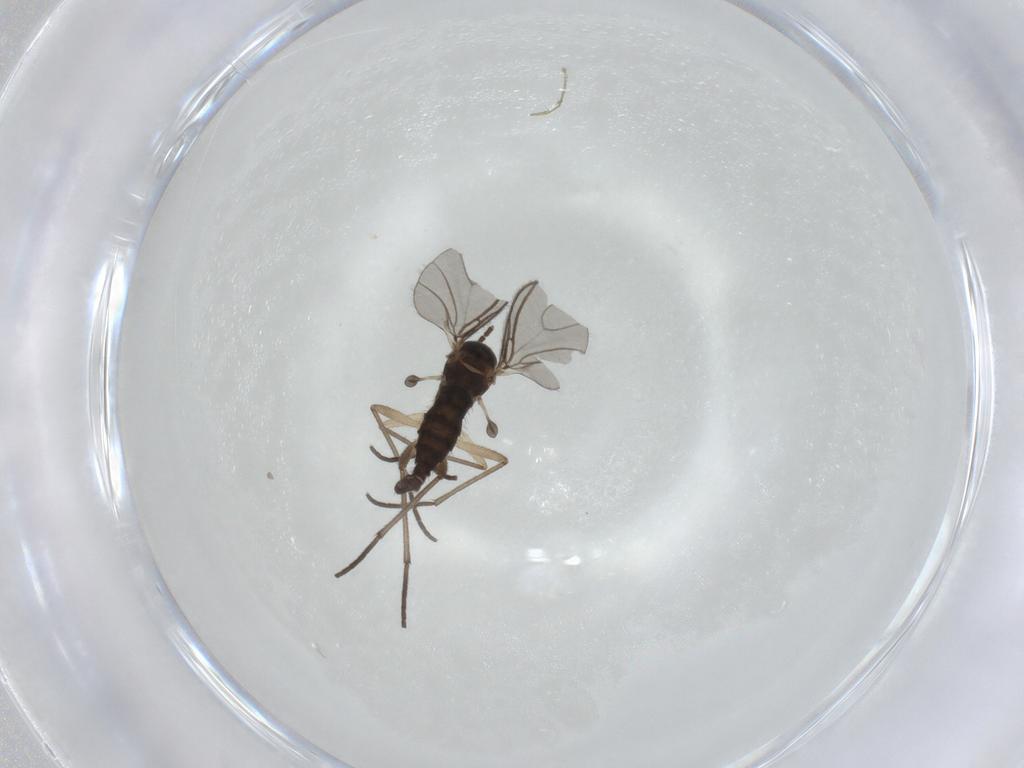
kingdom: Animalia
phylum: Arthropoda
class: Insecta
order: Diptera
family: Sciaridae
